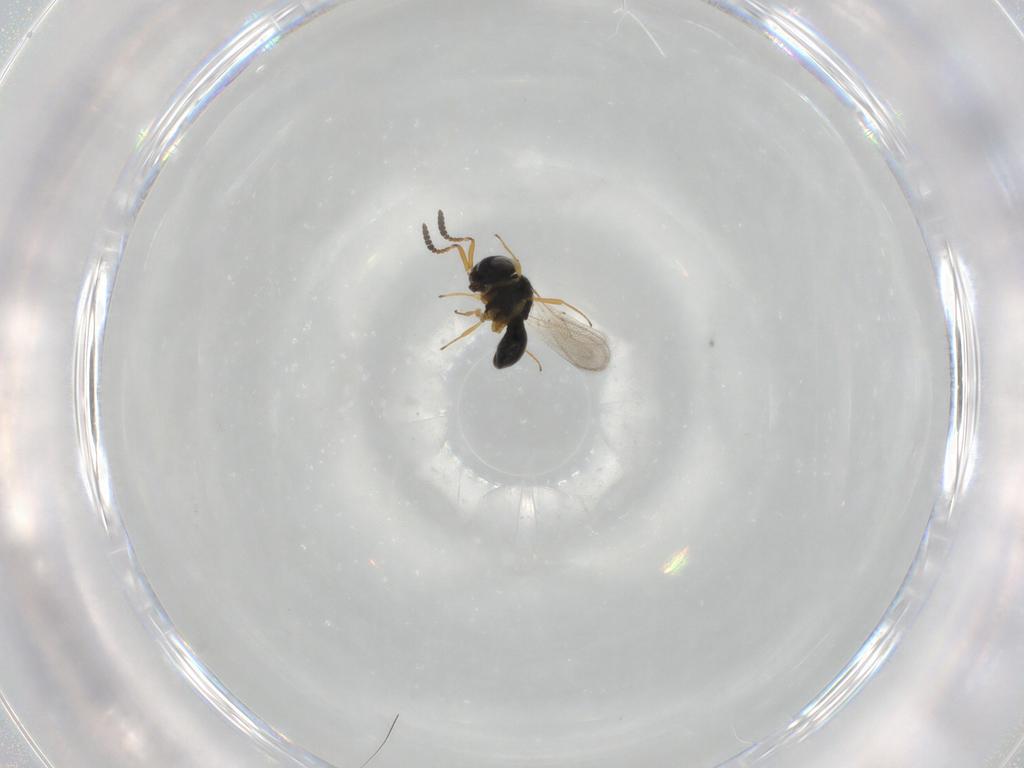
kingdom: Animalia
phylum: Arthropoda
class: Insecta
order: Hymenoptera
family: Scelionidae
